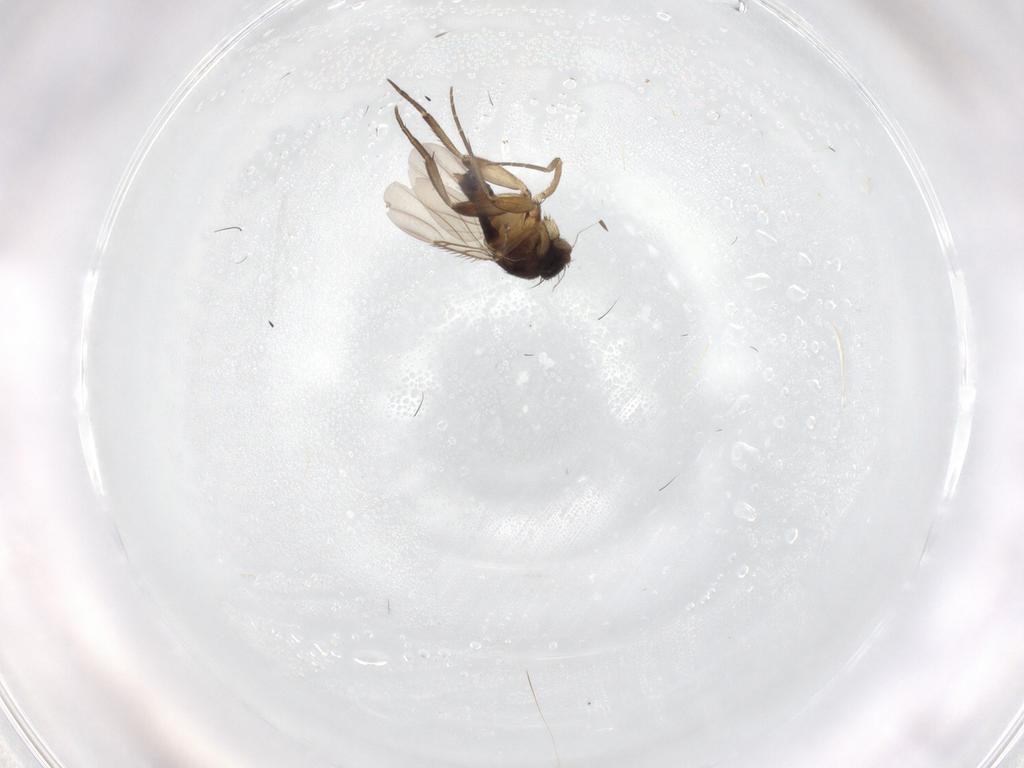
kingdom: Animalia
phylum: Arthropoda
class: Insecta
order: Diptera
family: Phoridae
